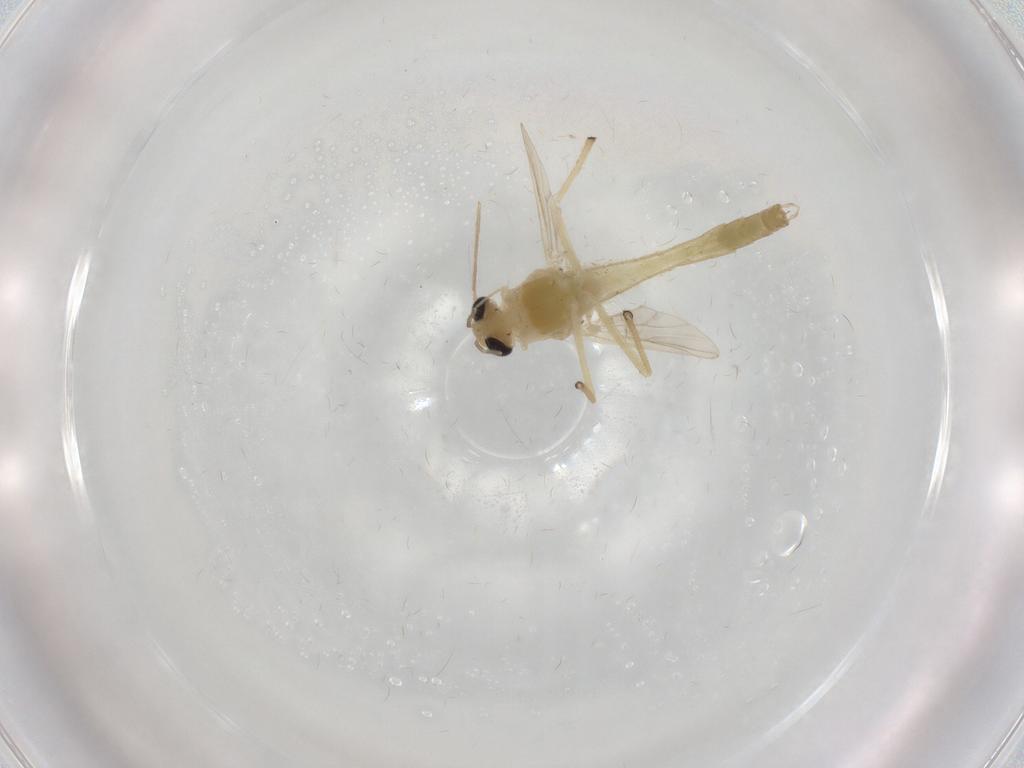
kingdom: Animalia
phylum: Arthropoda
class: Insecta
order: Diptera
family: Chironomidae
